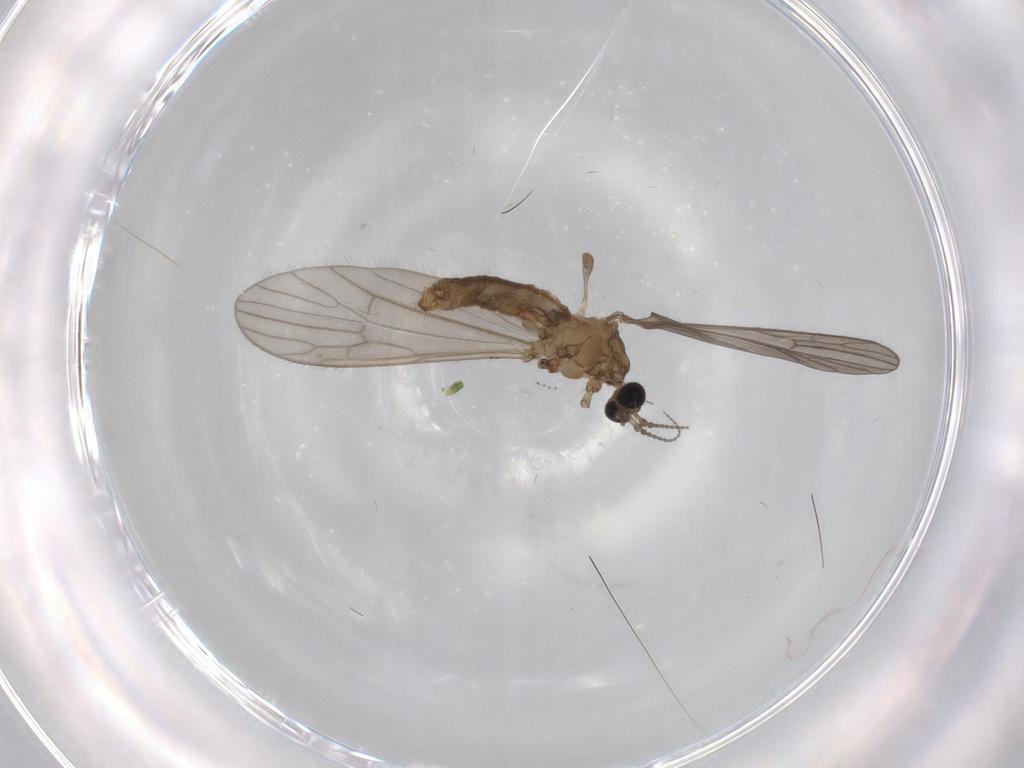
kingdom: Animalia
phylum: Arthropoda
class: Insecta
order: Diptera
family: Limoniidae
